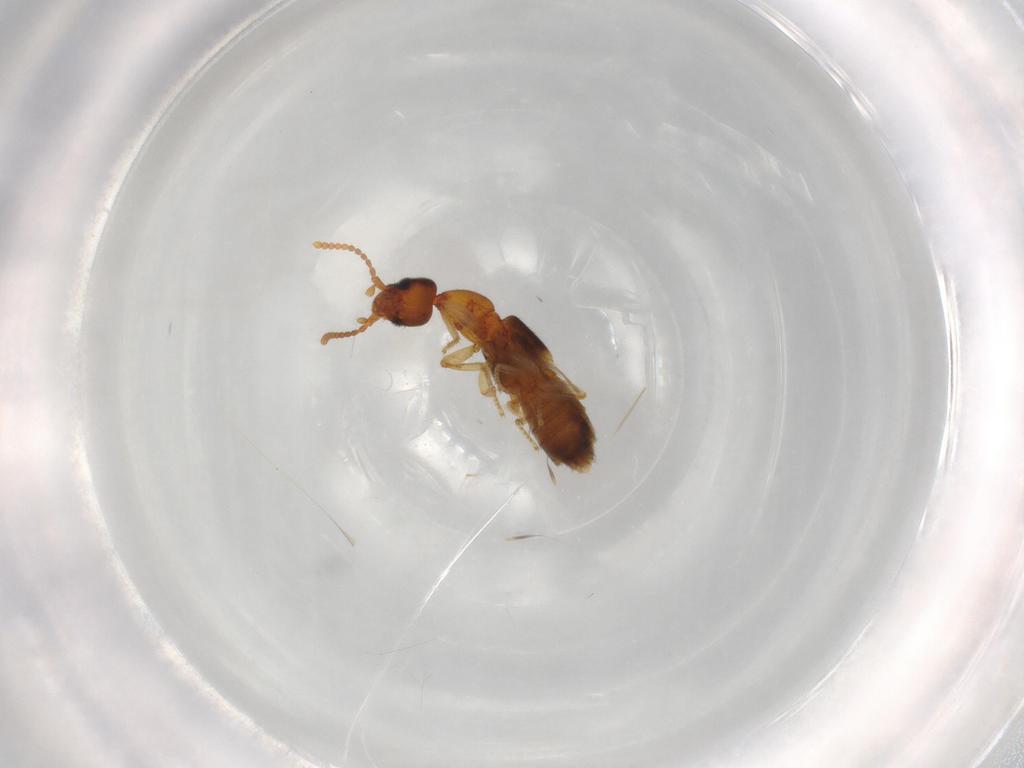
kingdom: Animalia
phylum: Arthropoda
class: Insecta
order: Coleoptera
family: Staphylinidae
